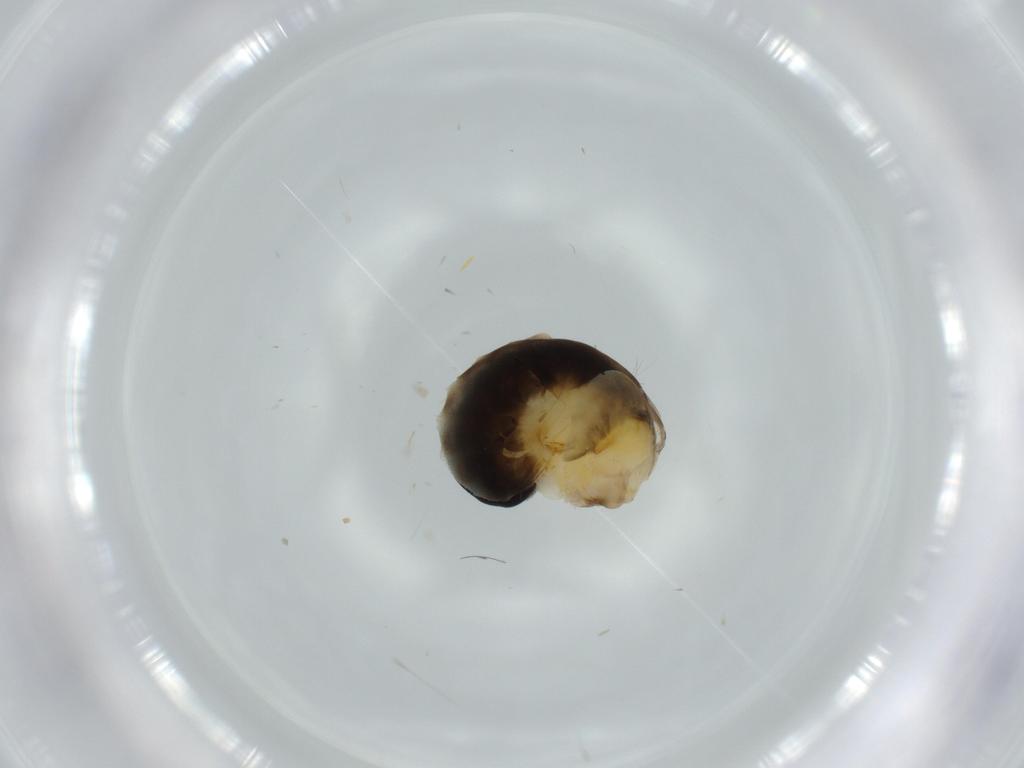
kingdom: Animalia
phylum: Arthropoda
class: Insecta
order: Hymenoptera
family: Dryinidae
